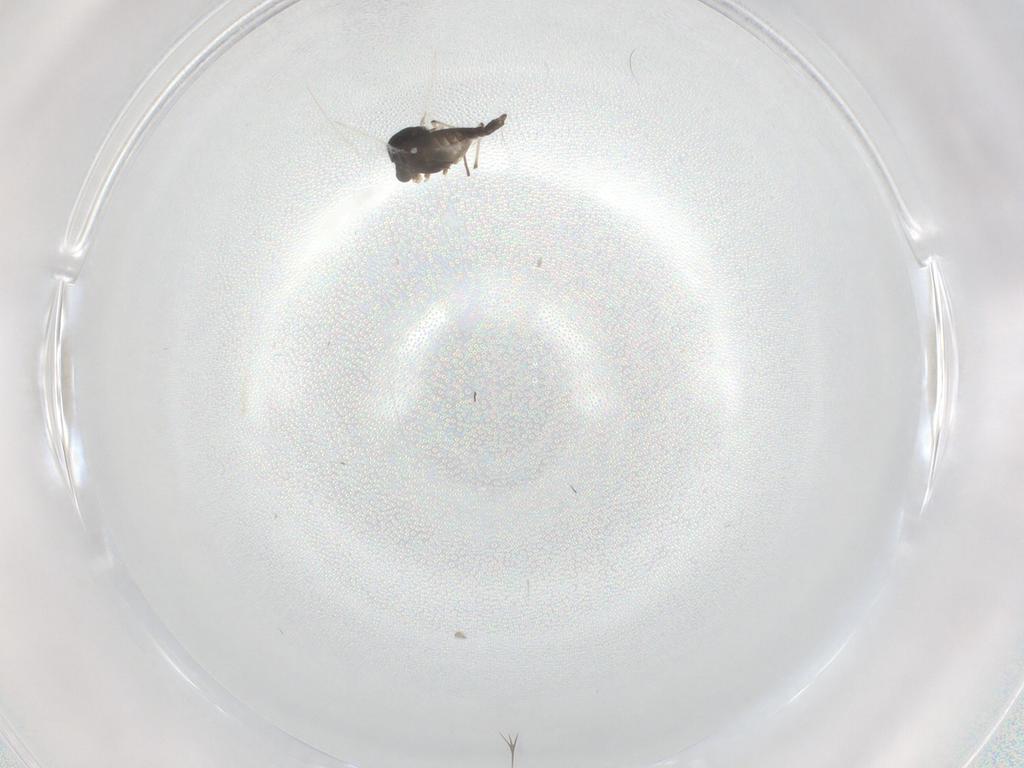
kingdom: Animalia
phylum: Arthropoda
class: Insecta
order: Diptera
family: Chironomidae
